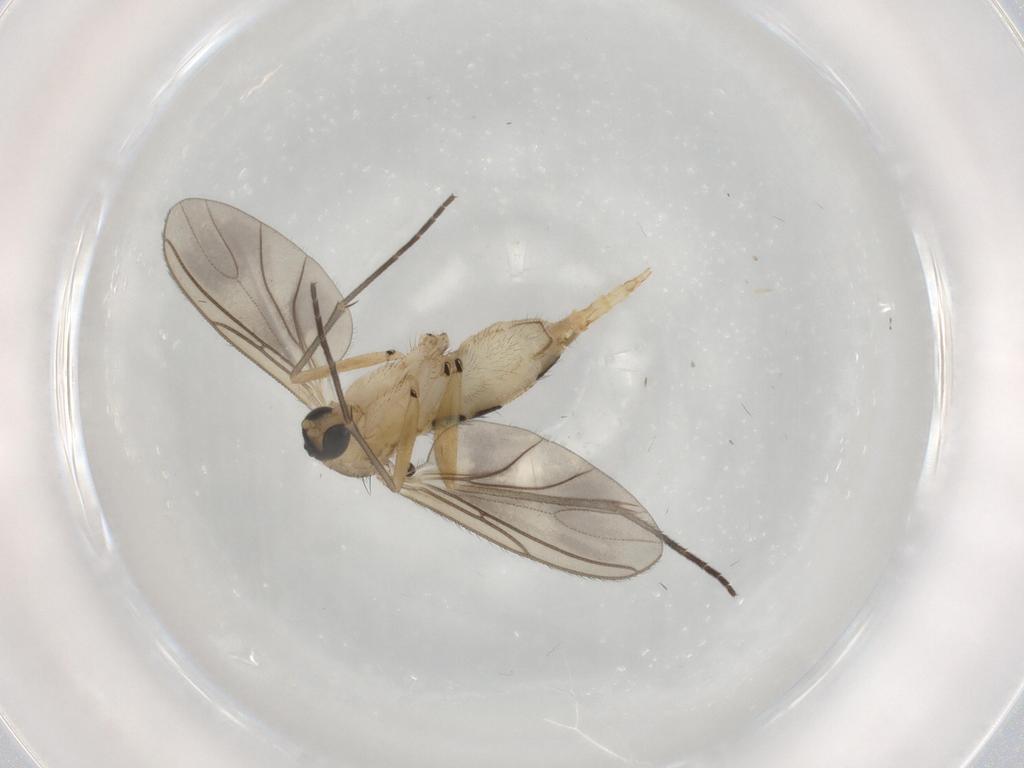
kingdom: Animalia
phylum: Arthropoda
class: Insecta
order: Diptera
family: Sciaridae
